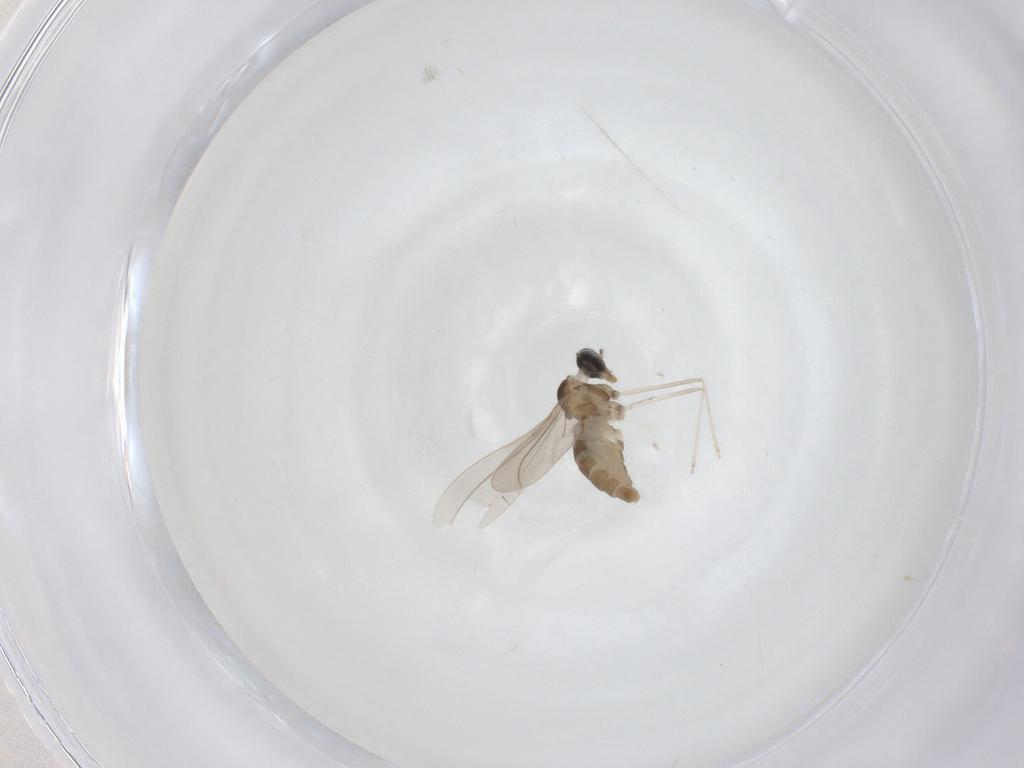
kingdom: Animalia
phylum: Arthropoda
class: Insecta
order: Diptera
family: Cecidomyiidae
